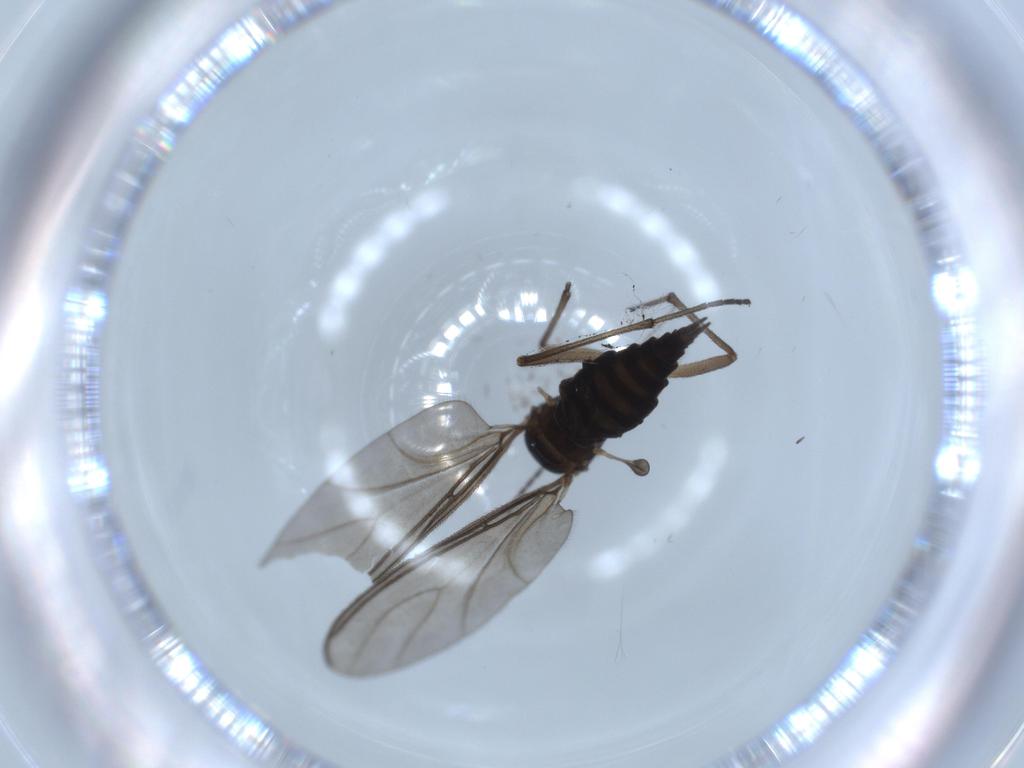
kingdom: Animalia
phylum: Arthropoda
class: Insecta
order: Diptera
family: Sciaridae
